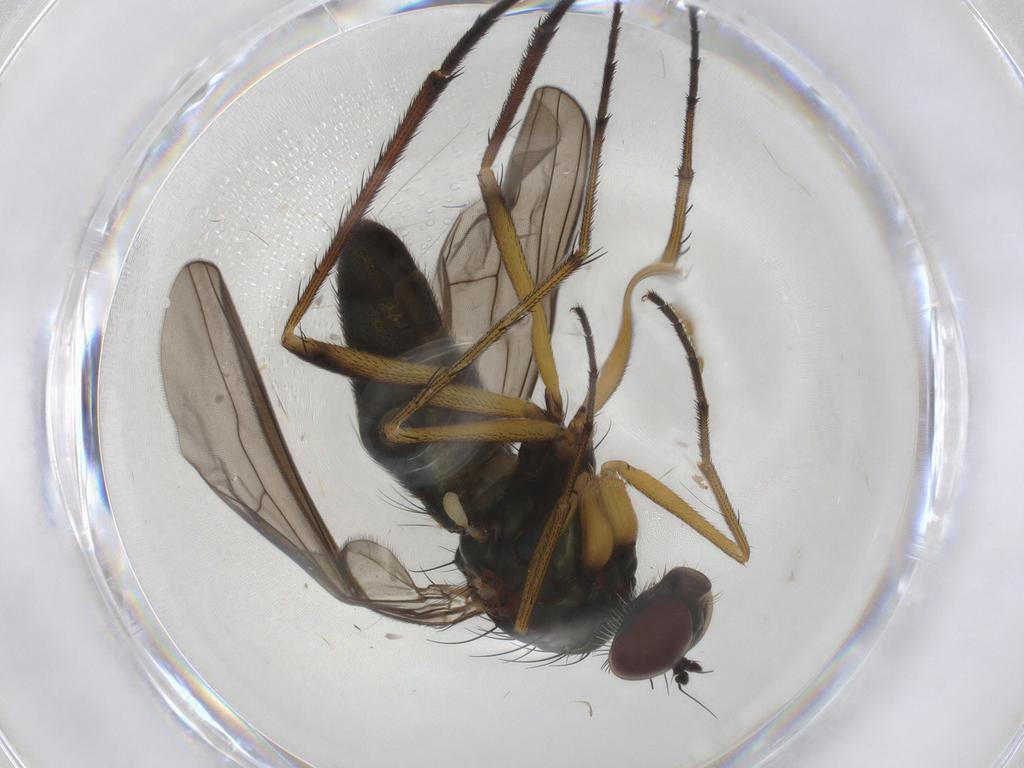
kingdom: Animalia
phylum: Arthropoda
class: Insecta
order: Diptera
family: Dolichopodidae
